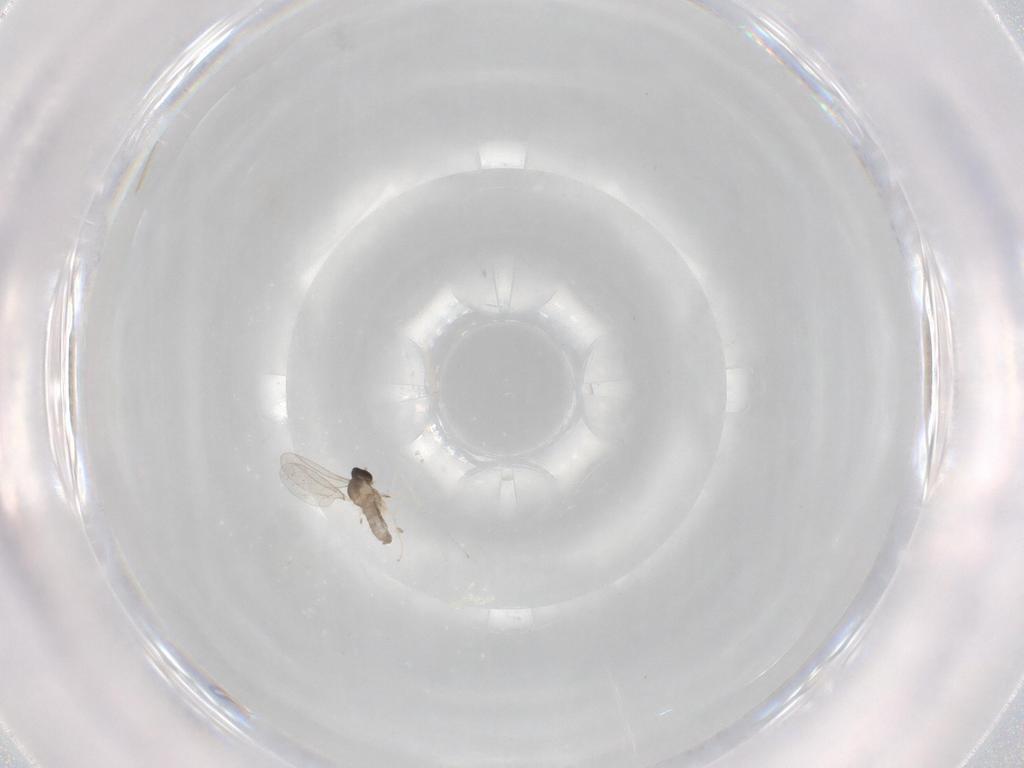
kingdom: Animalia
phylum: Arthropoda
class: Insecta
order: Diptera
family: Cecidomyiidae
